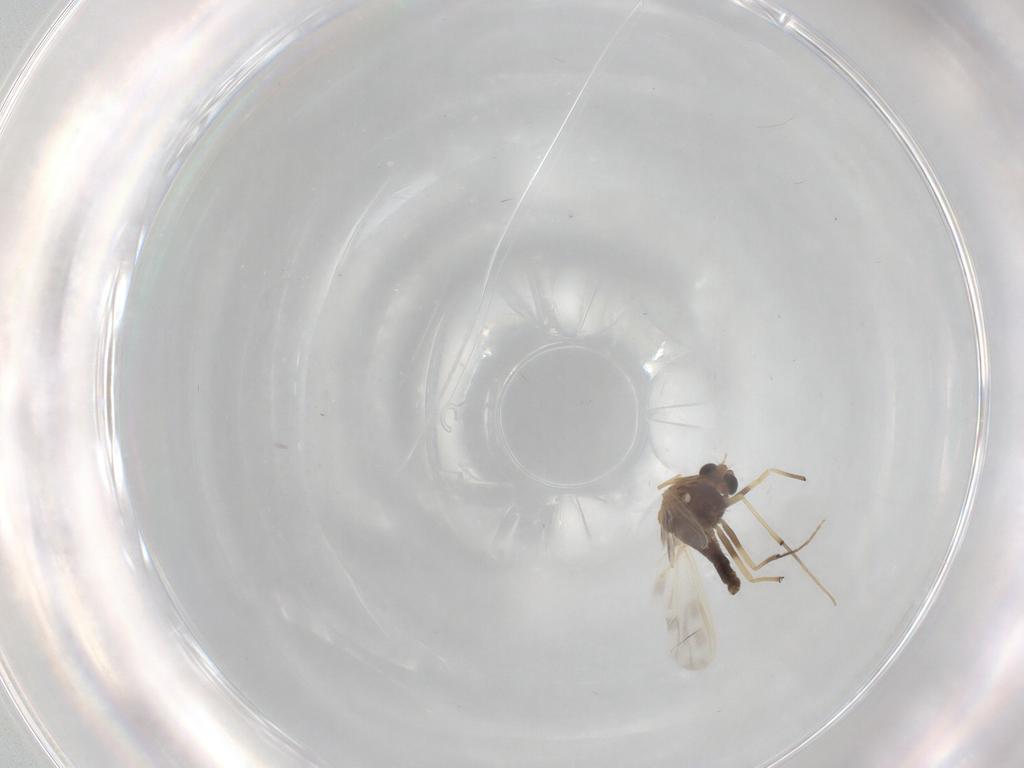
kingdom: Animalia
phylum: Arthropoda
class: Insecta
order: Diptera
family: Chironomidae
